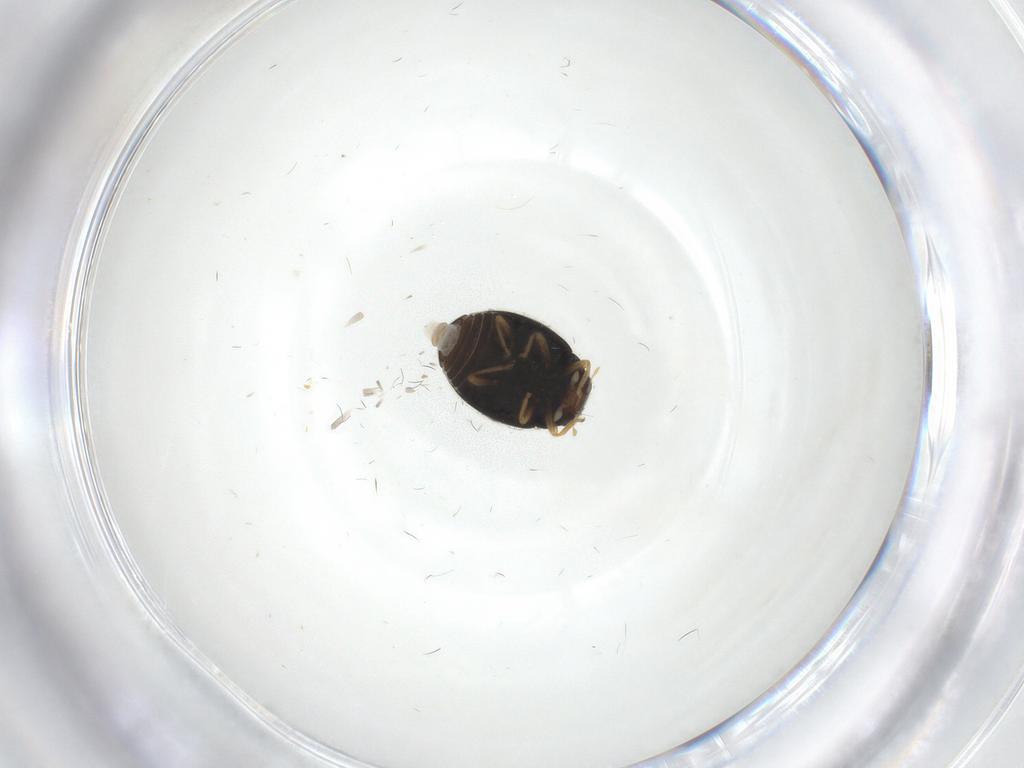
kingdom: Animalia
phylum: Arthropoda
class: Insecta
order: Coleoptera
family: Coccinellidae
